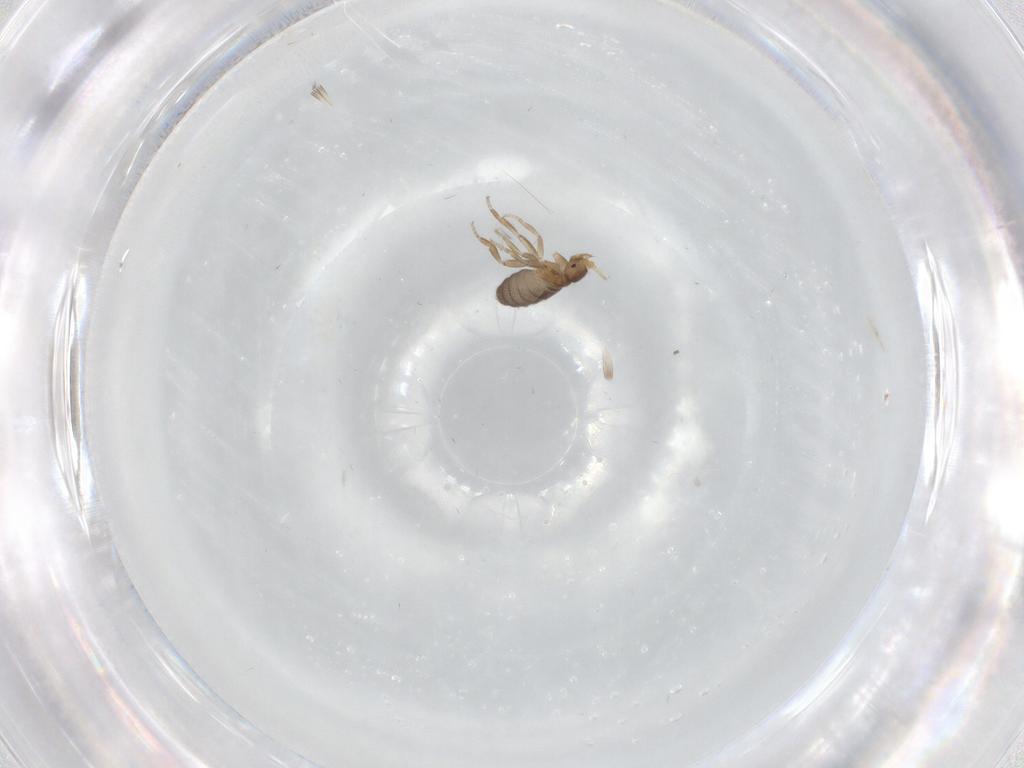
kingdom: Animalia
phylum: Arthropoda
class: Insecta
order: Diptera
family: Phoridae
